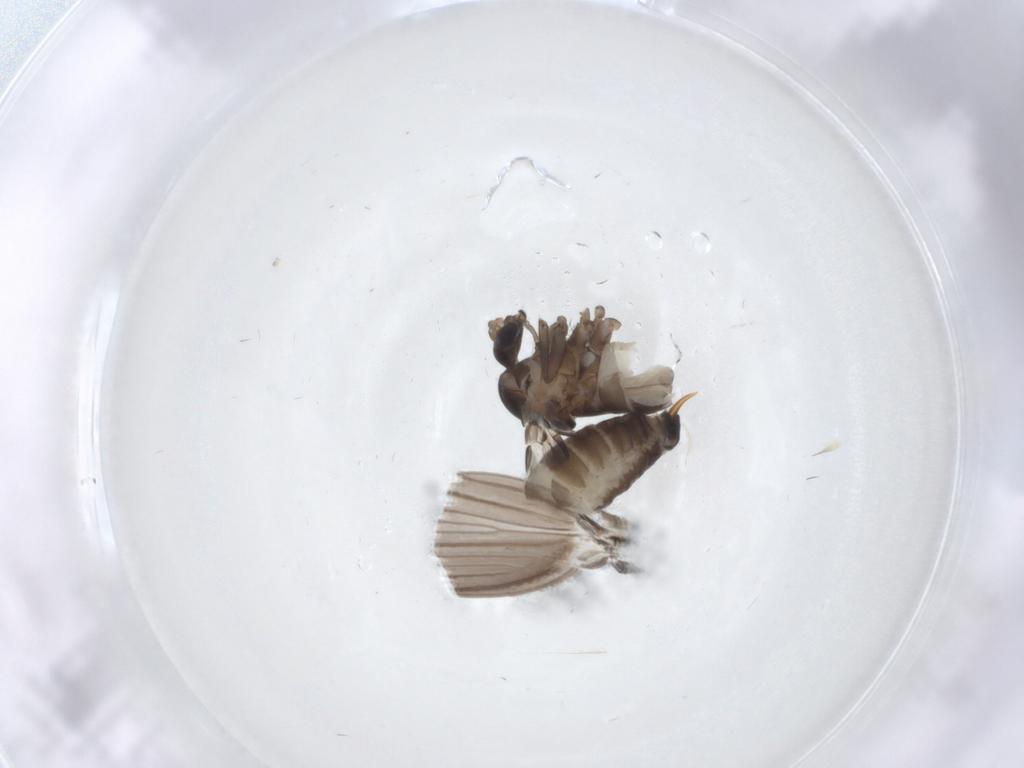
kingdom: Animalia
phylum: Arthropoda
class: Insecta
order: Diptera
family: Psychodidae
